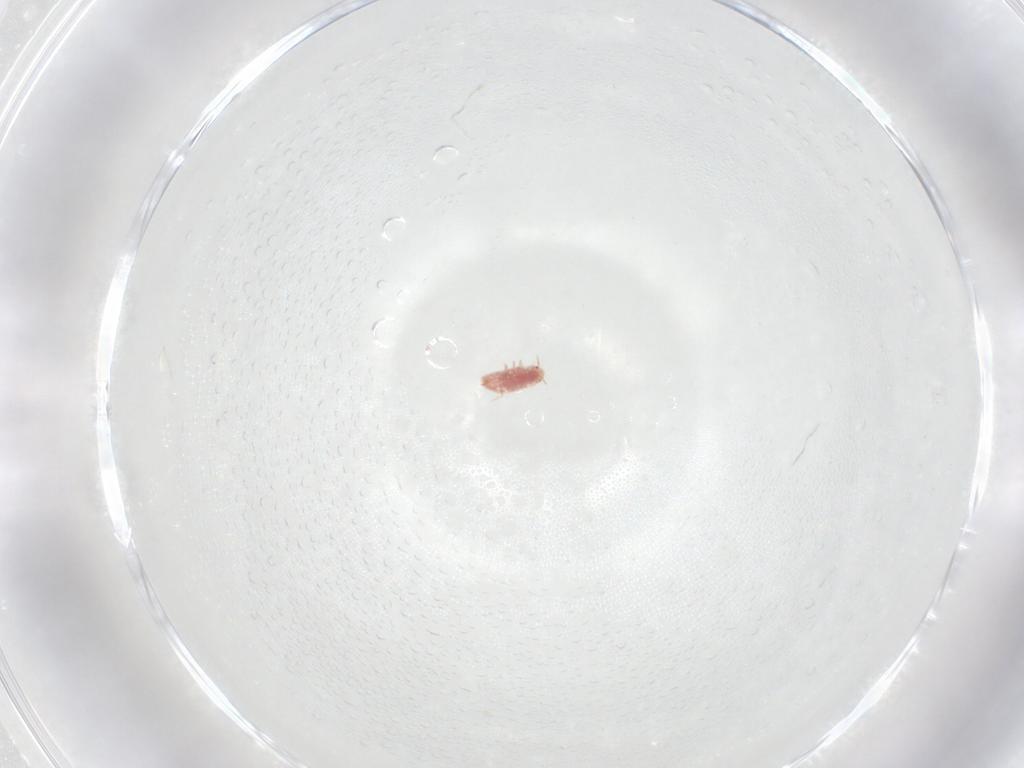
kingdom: Animalia
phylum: Arthropoda
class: Insecta
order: Hemiptera
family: Coccidae
